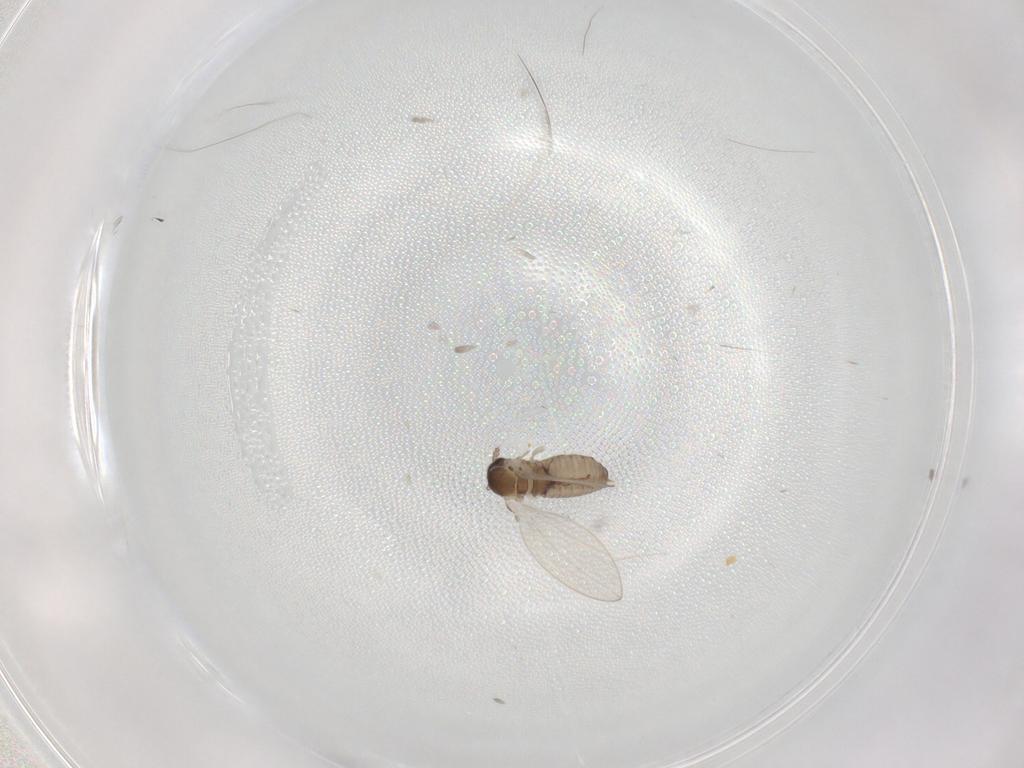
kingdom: Animalia
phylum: Arthropoda
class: Insecta
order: Diptera
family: Psychodidae
